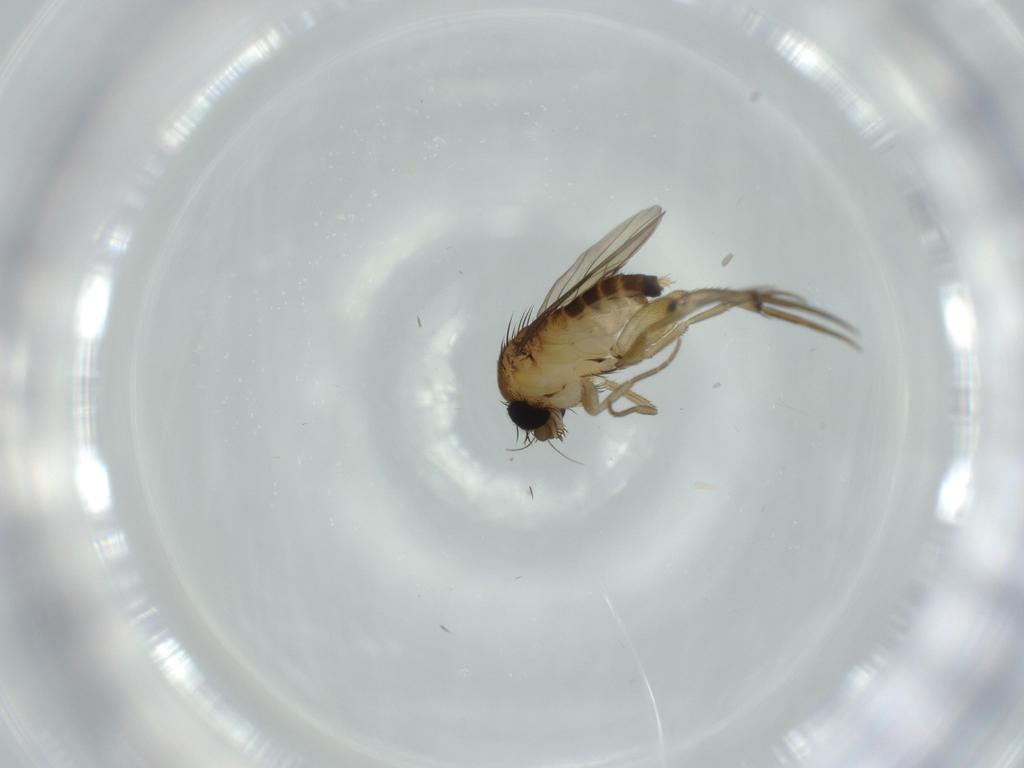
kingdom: Animalia
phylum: Arthropoda
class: Insecta
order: Diptera
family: Phoridae
